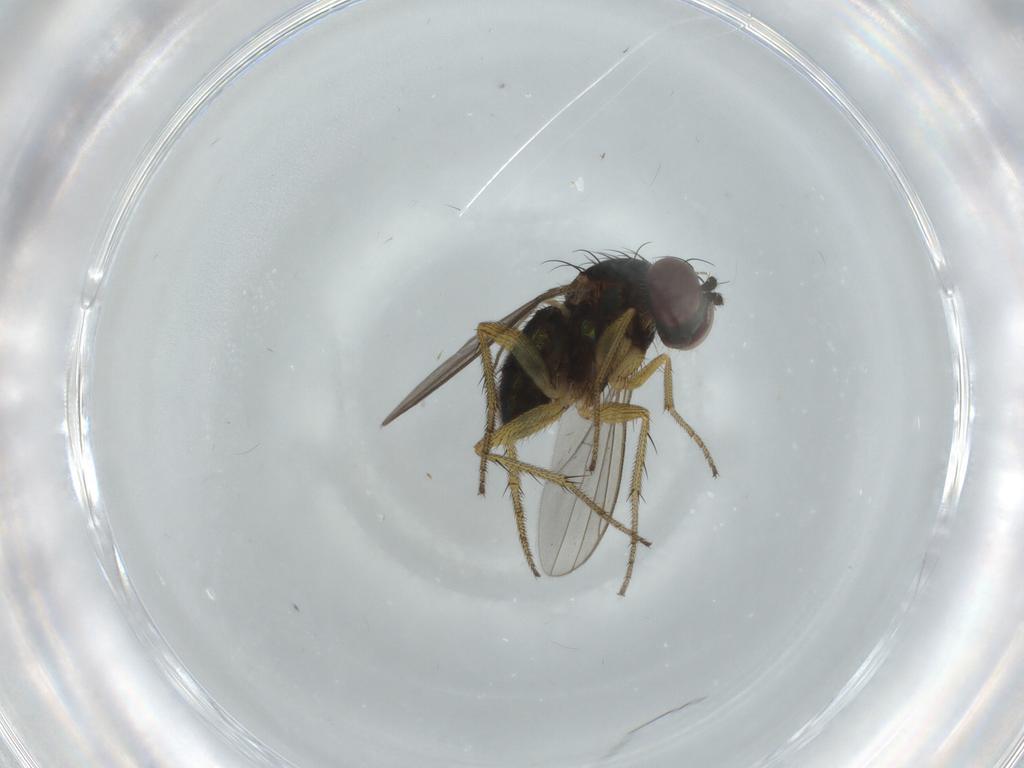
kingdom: Animalia
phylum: Arthropoda
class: Insecta
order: Diptera
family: Dolichopodidae
